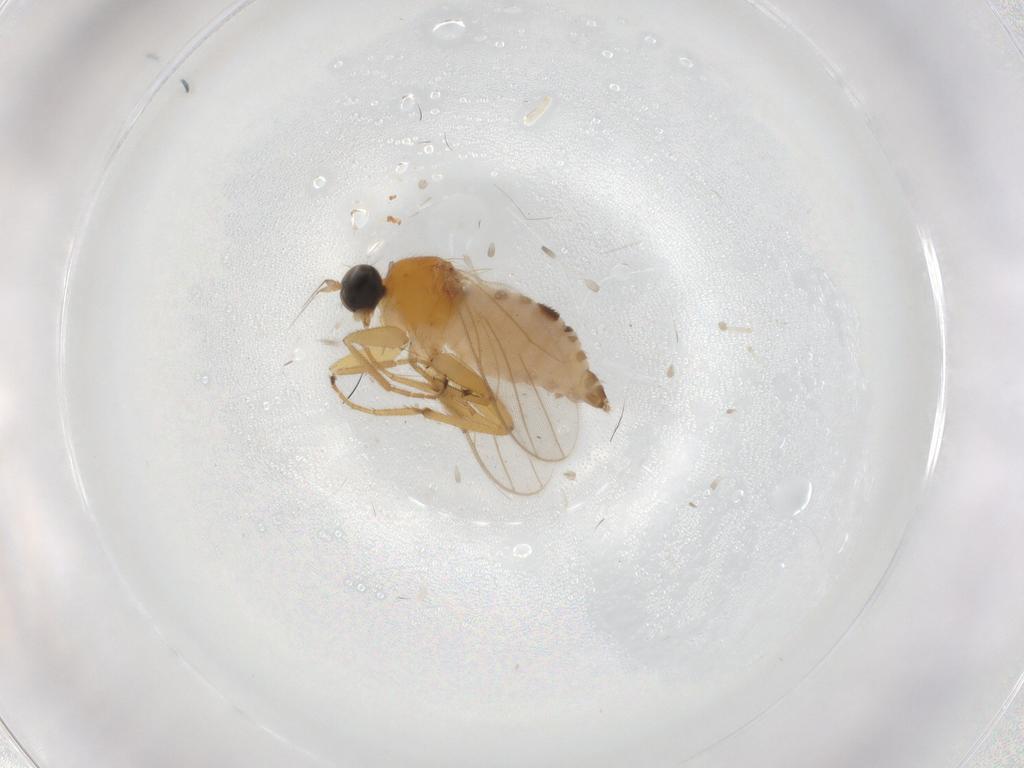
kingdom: Animalia
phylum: Arthropoda
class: Insecta
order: Diptera
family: Hybotidae
